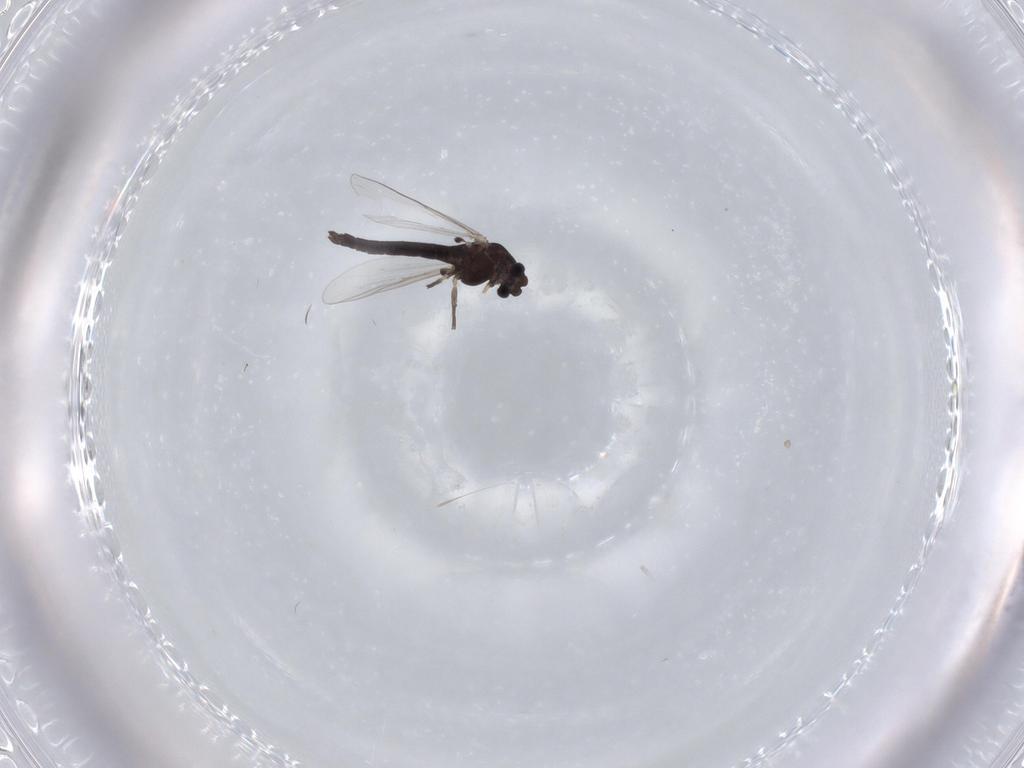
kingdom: Animalia
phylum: Arthropoda
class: Insecta
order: Diptera
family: Chironomidae
